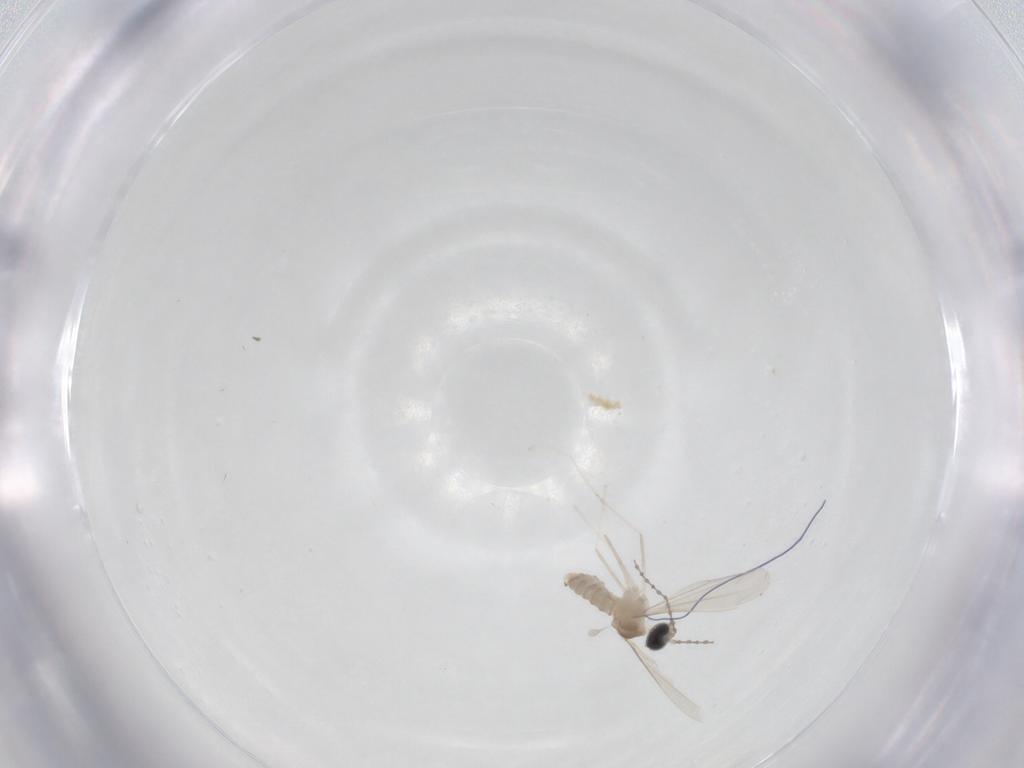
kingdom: Animalia
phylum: Arthropoda
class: Insecta
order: Diptera
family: Cecidomyiidae
